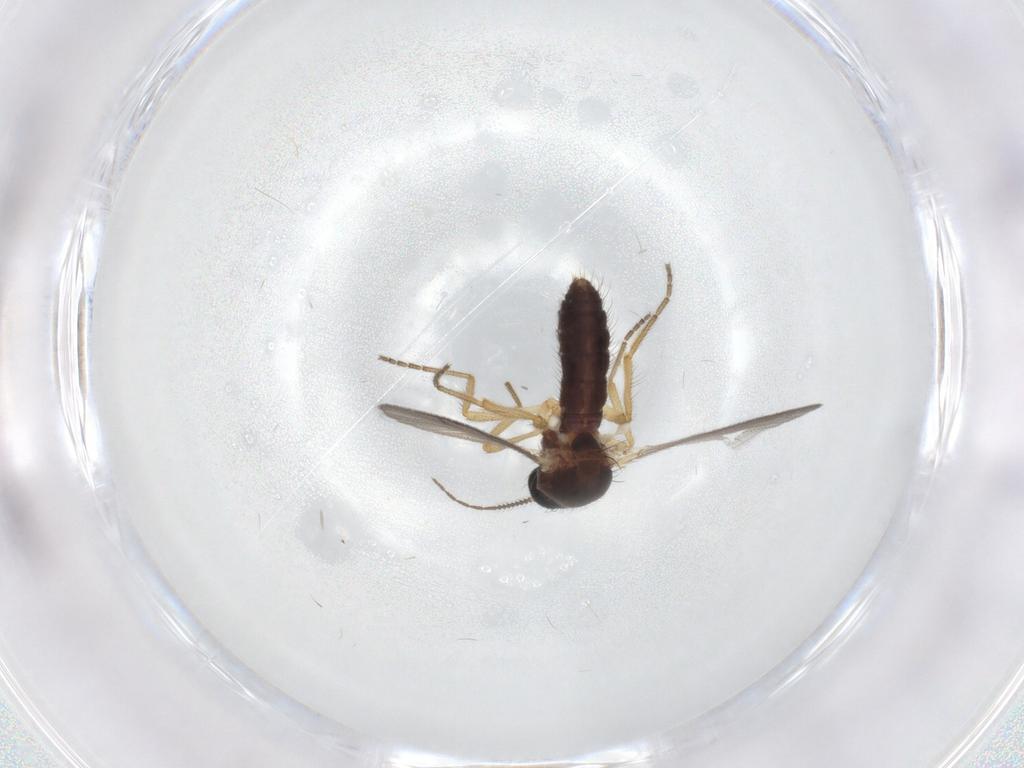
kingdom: Animalia
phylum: Arthropoda
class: Insecta
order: Diptera
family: Ceratopogonidae
